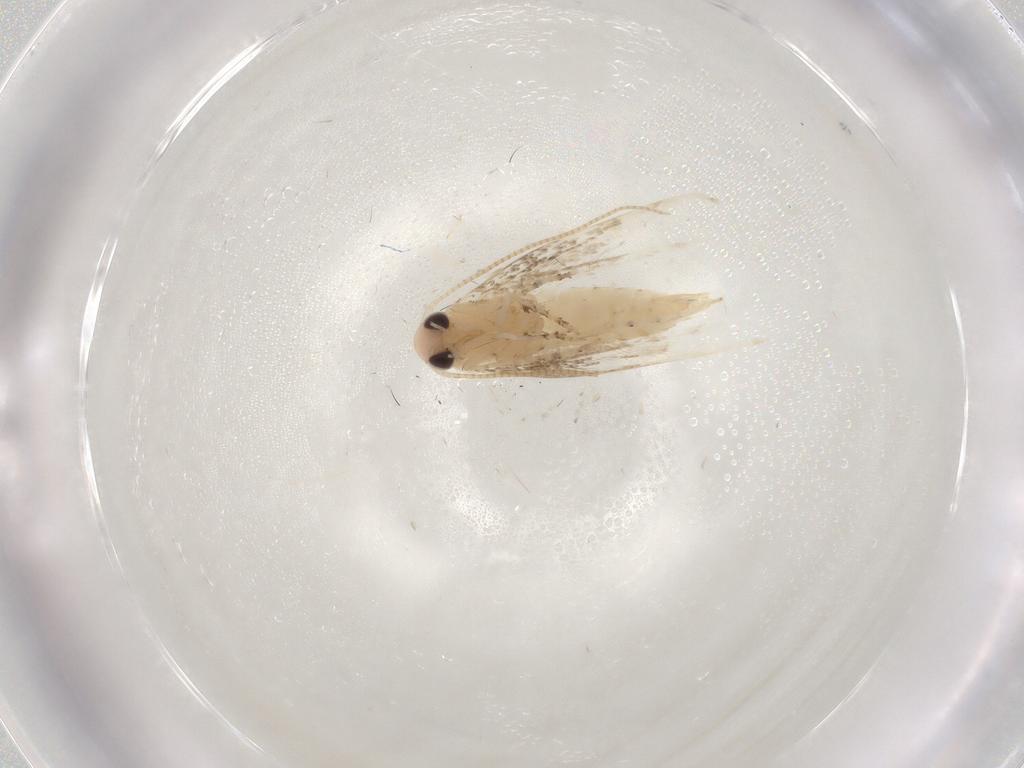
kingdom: Animalia
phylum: Arthropoda
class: Insecta
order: Lepidoptera
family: Gracillariidae
